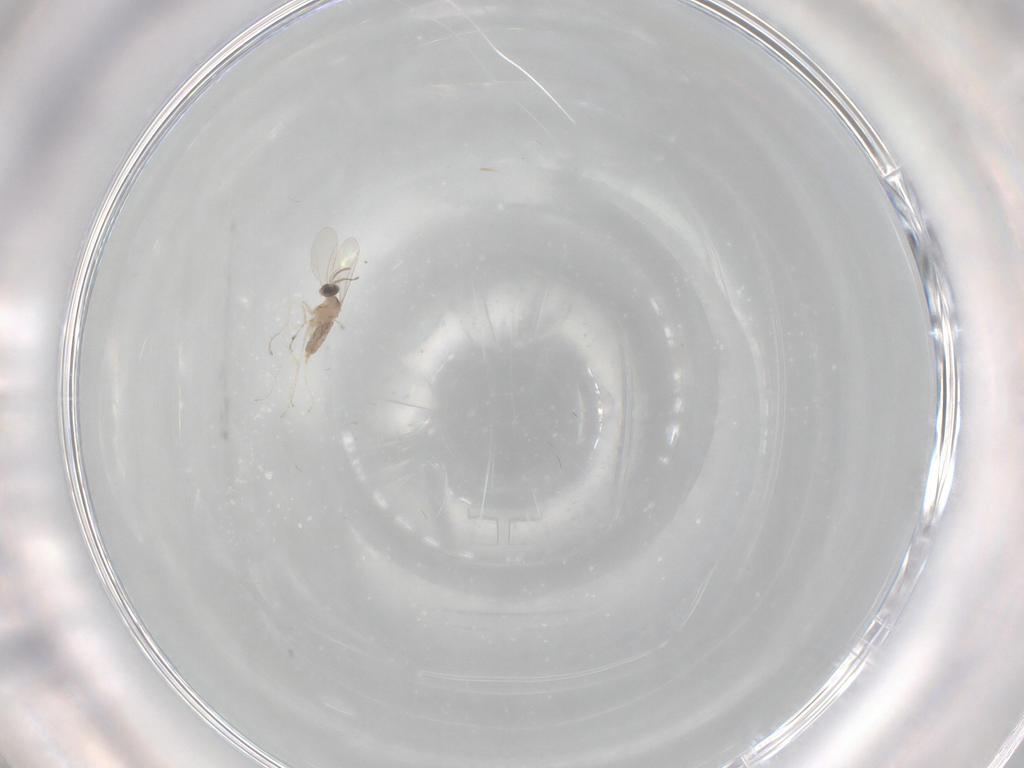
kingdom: Animalia
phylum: Arthropoda
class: Insecta
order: Diptera
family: Cecidomyiidae
